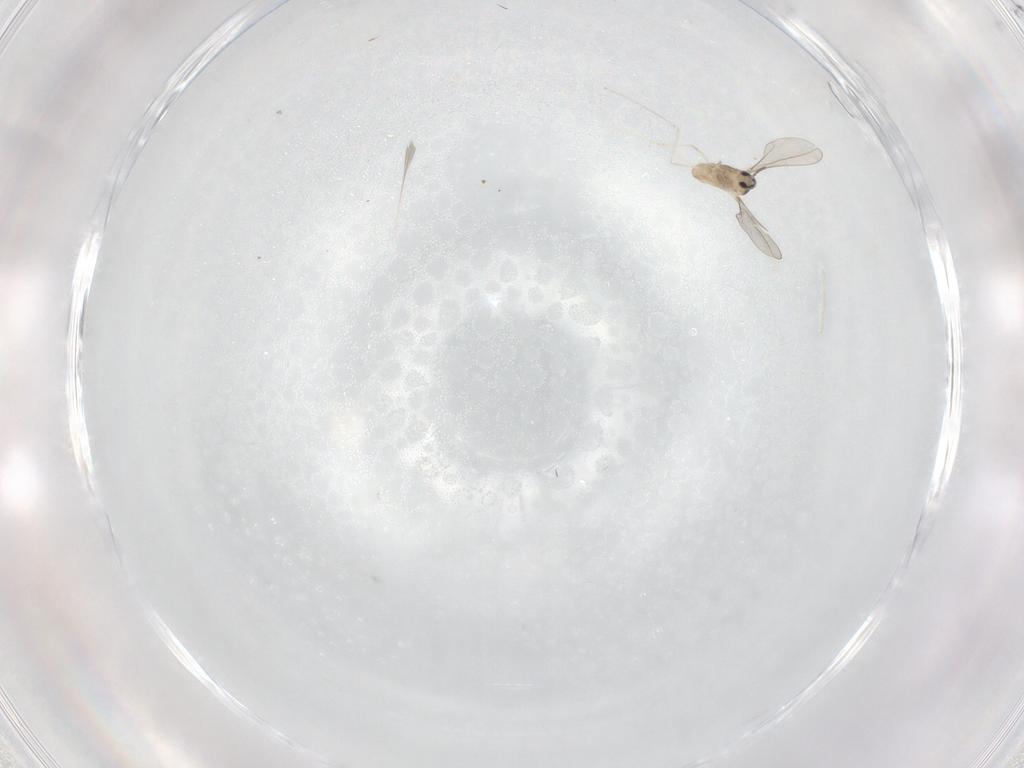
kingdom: Animalia
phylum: Arthropoda
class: Insecta
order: Diptera
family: Cecidomyiidae
